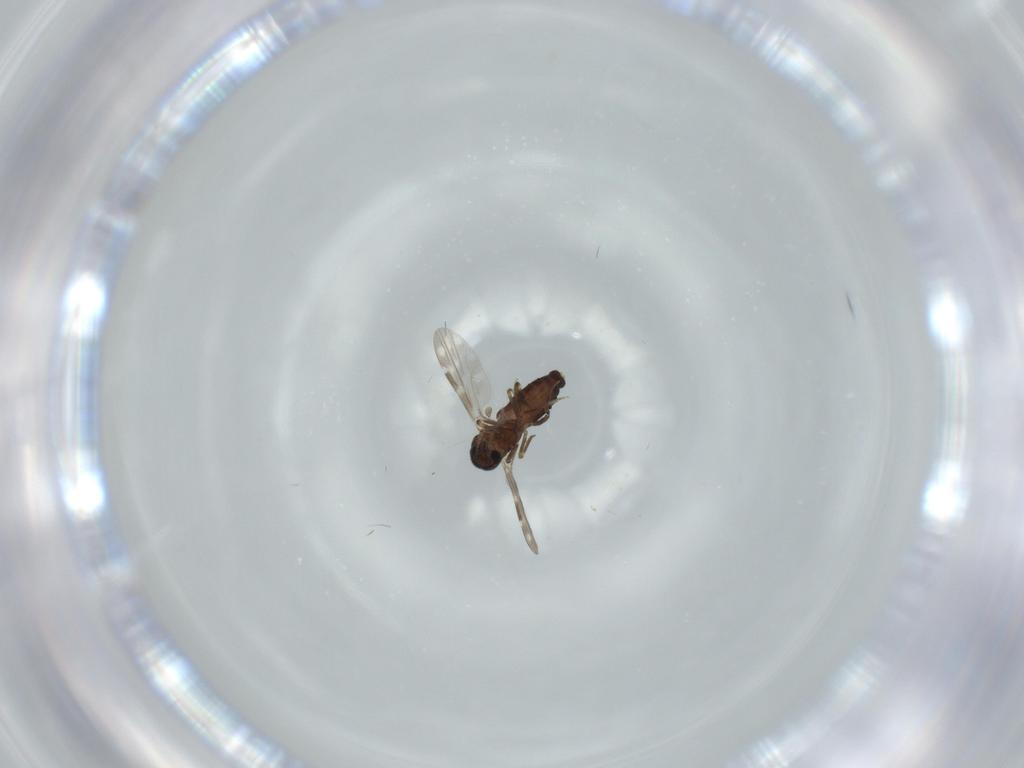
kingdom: Animalia
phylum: Arthropoda
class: Insecta
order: Diptera
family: Ceratopogonidae
